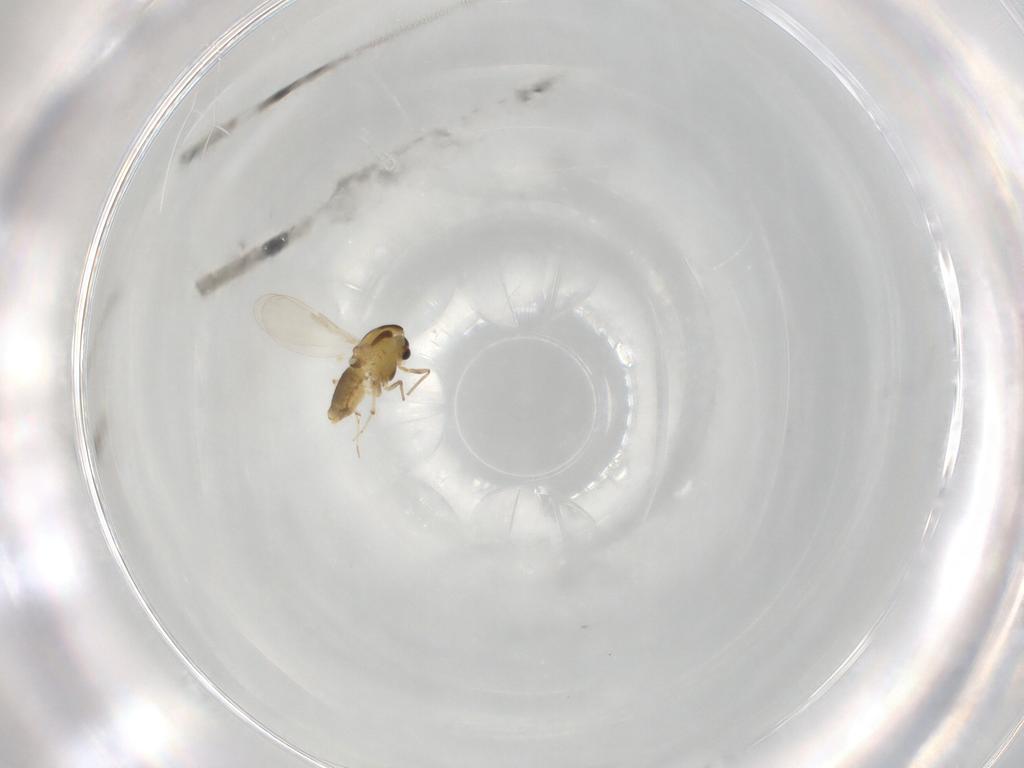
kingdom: Animalia
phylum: Arthropoda
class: Insecta
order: Diptera
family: Chironomidae
